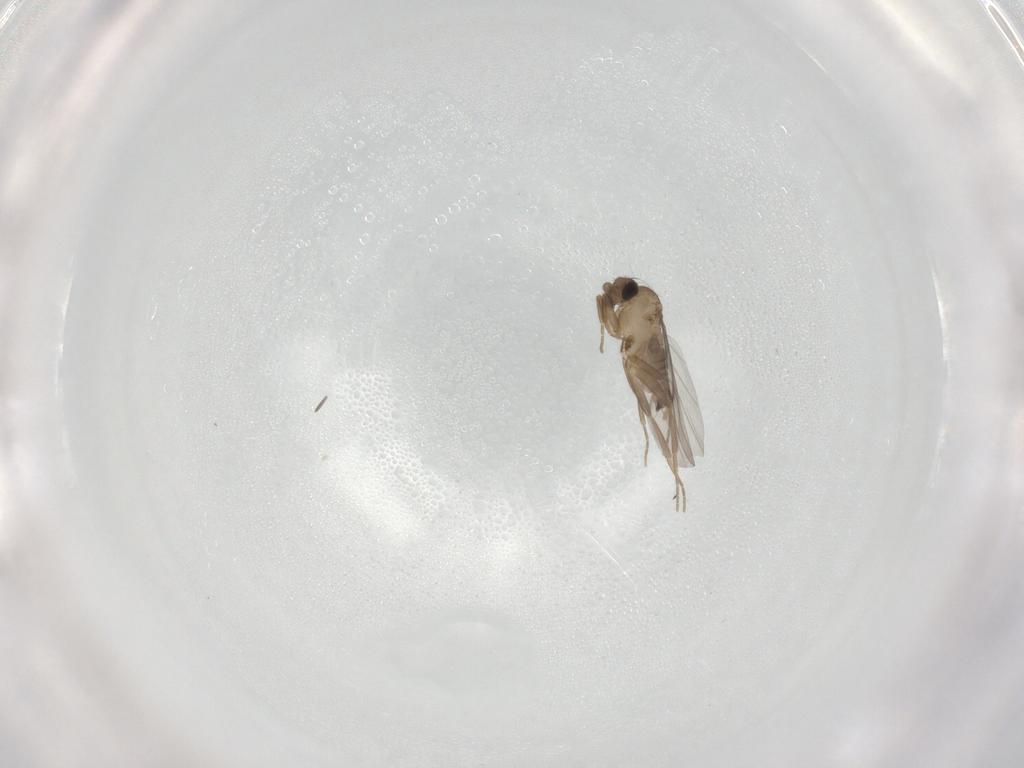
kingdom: Animalia
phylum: Arthropoda
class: Insecta
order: Diptera
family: Ceratopogonidae
